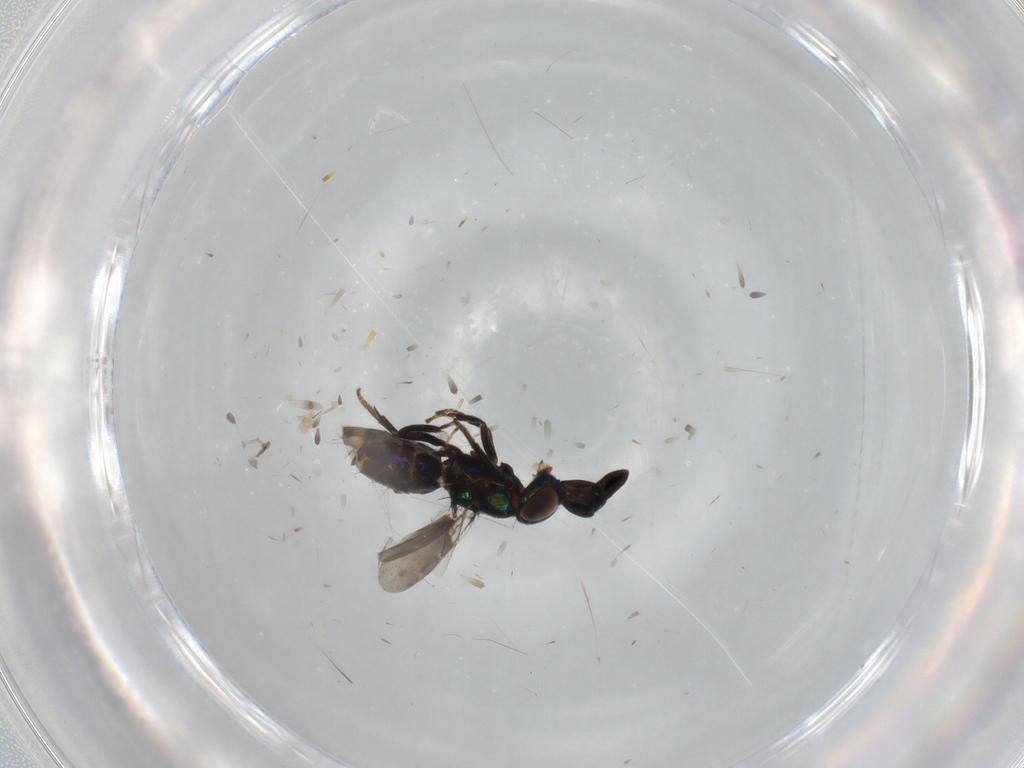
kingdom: Animalia
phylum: Arthropoda
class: Insecta
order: Hymenoptera
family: Encyrtidae
